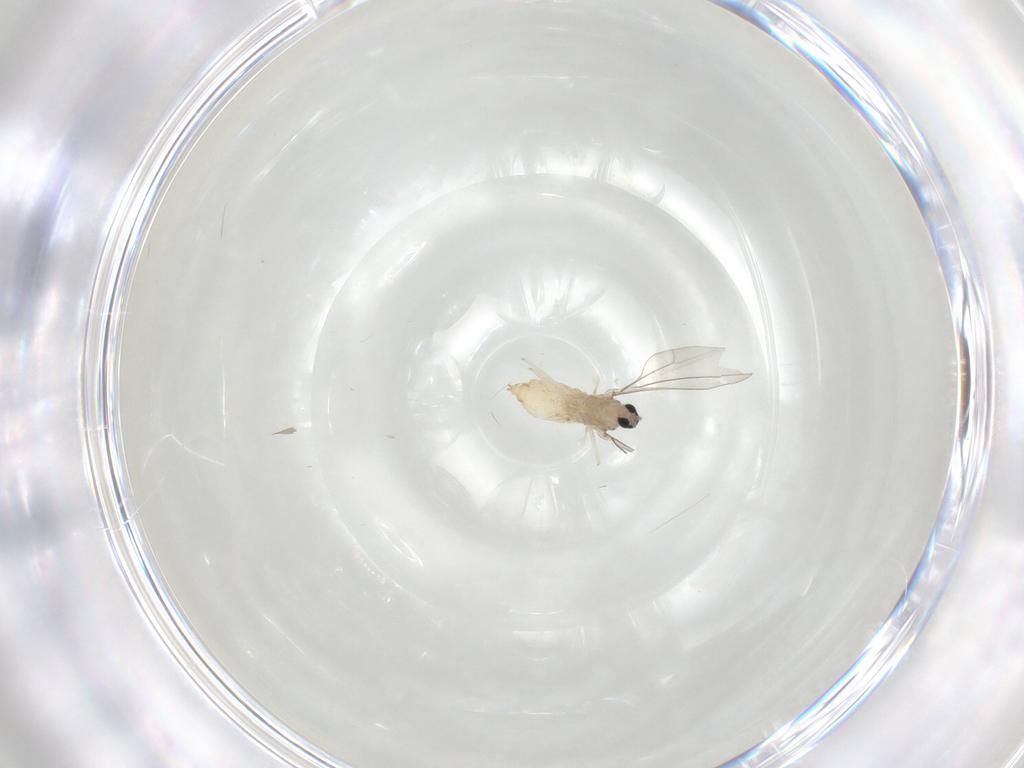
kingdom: Animalia
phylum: Arthropoda
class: Insecta
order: Diptera
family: Cecidomyiidae
